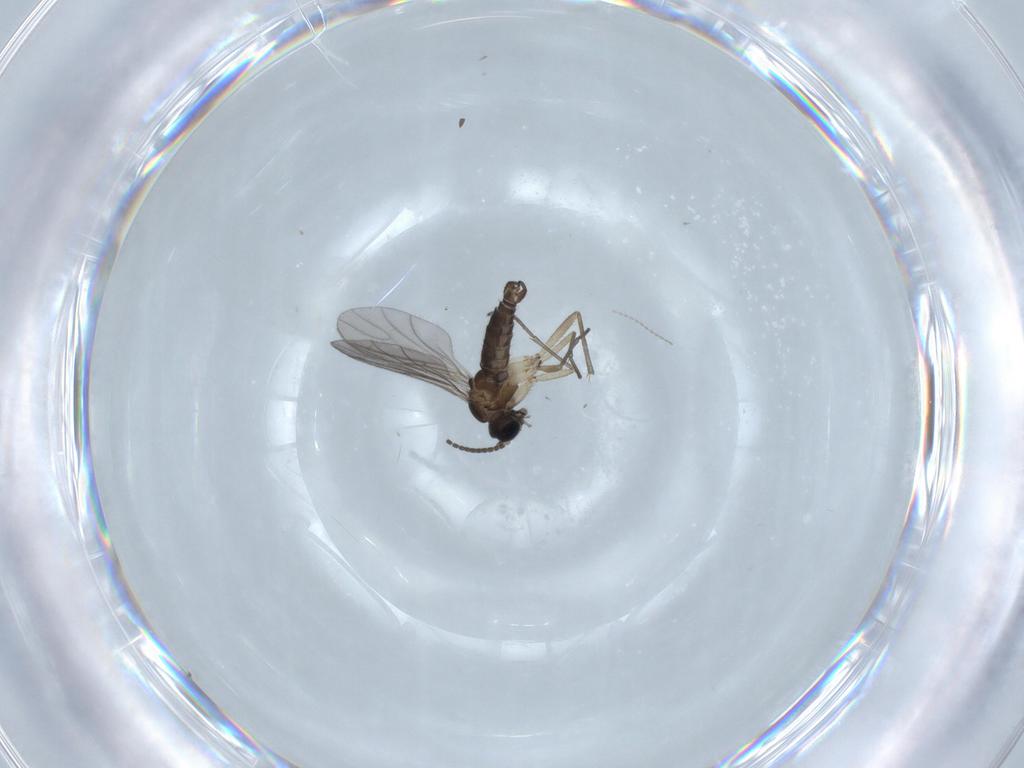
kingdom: Animalia
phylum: Arthropoda
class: Insecta
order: Diptera
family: Sciaridae
